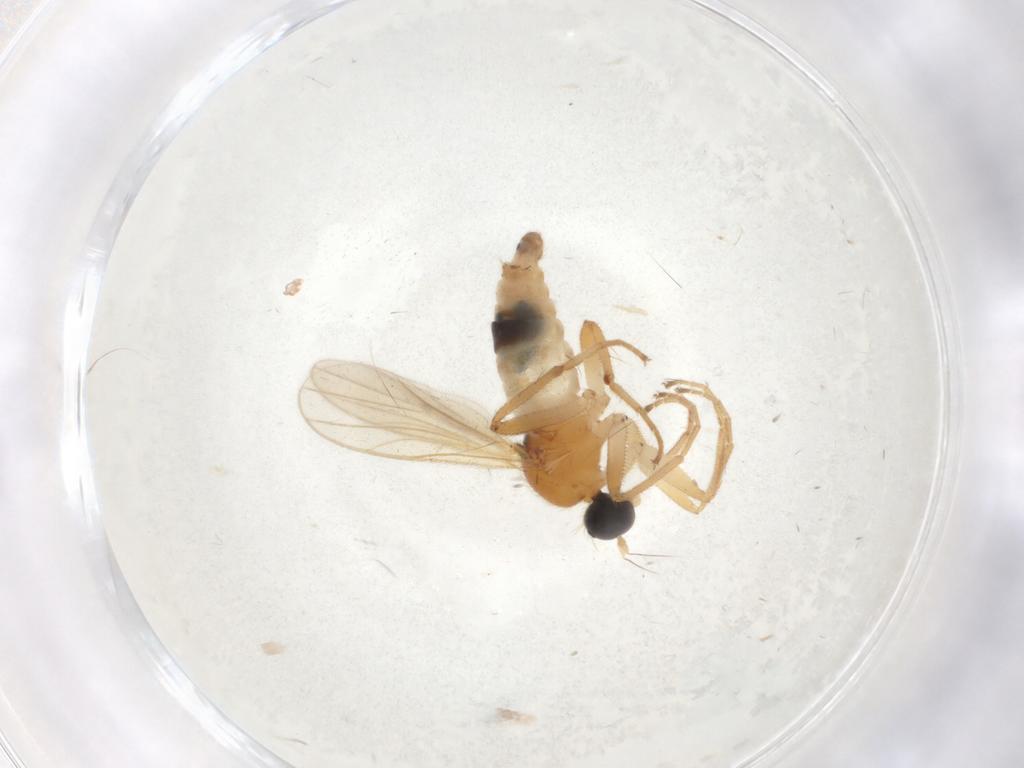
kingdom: Animalia
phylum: Arthropoda
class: Insecta
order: Diptera
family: Hybotidae
